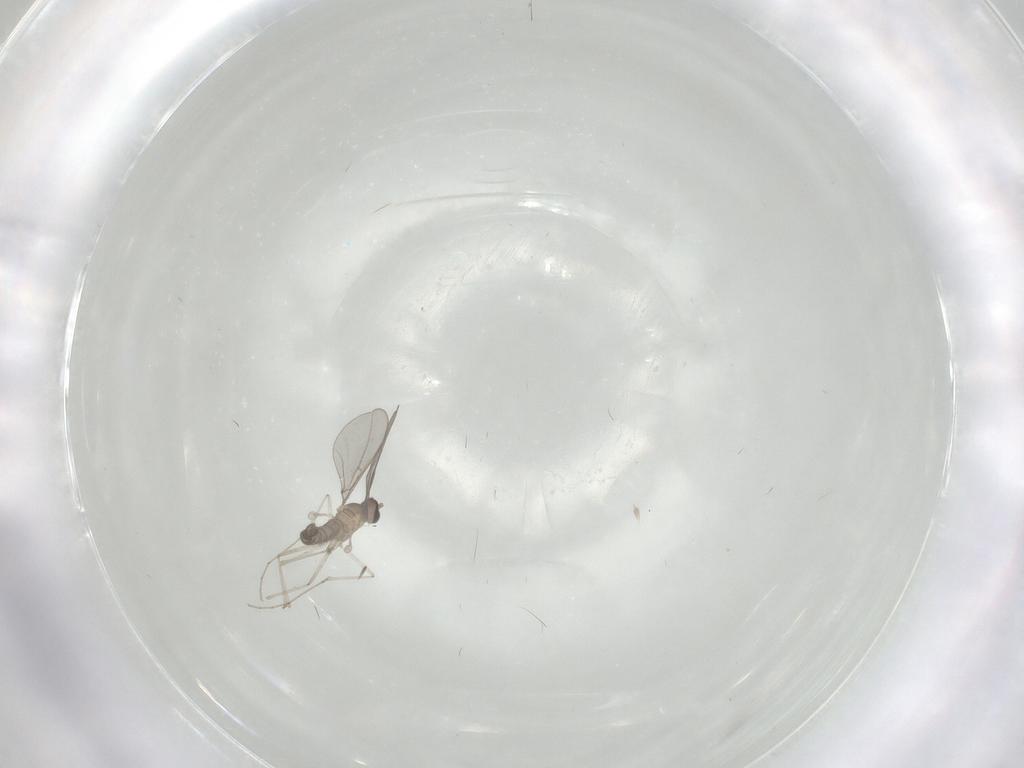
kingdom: Animalia
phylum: Arthropoda
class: Insecta
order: Diptera
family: Cecidomyiidae
